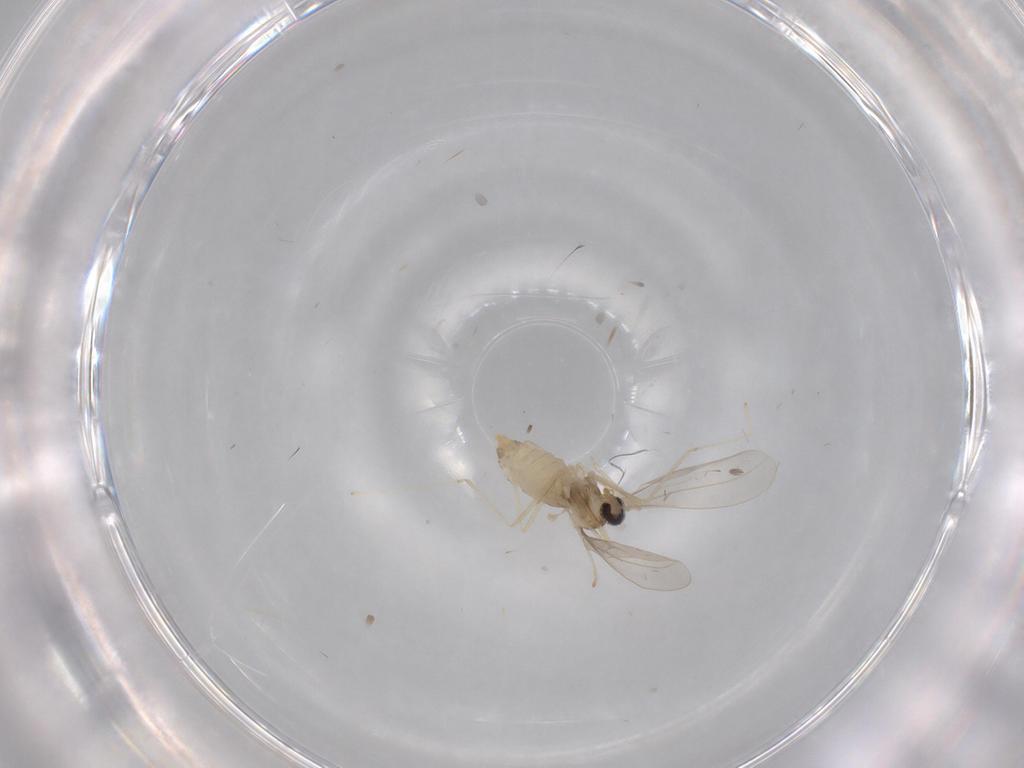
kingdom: Animalia
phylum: Arthropoda
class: Insecta
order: Diptera
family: Cecidomyiidae
